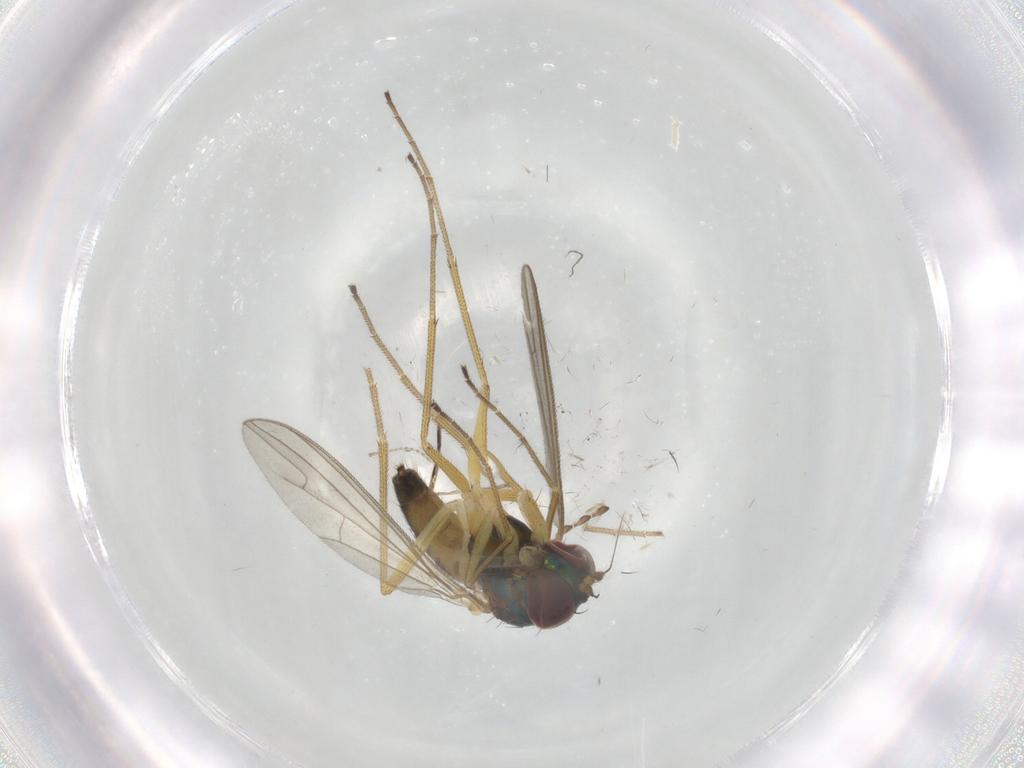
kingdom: Animalia
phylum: Arthropoda
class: Insecta
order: Diptera
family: Psychodidae
